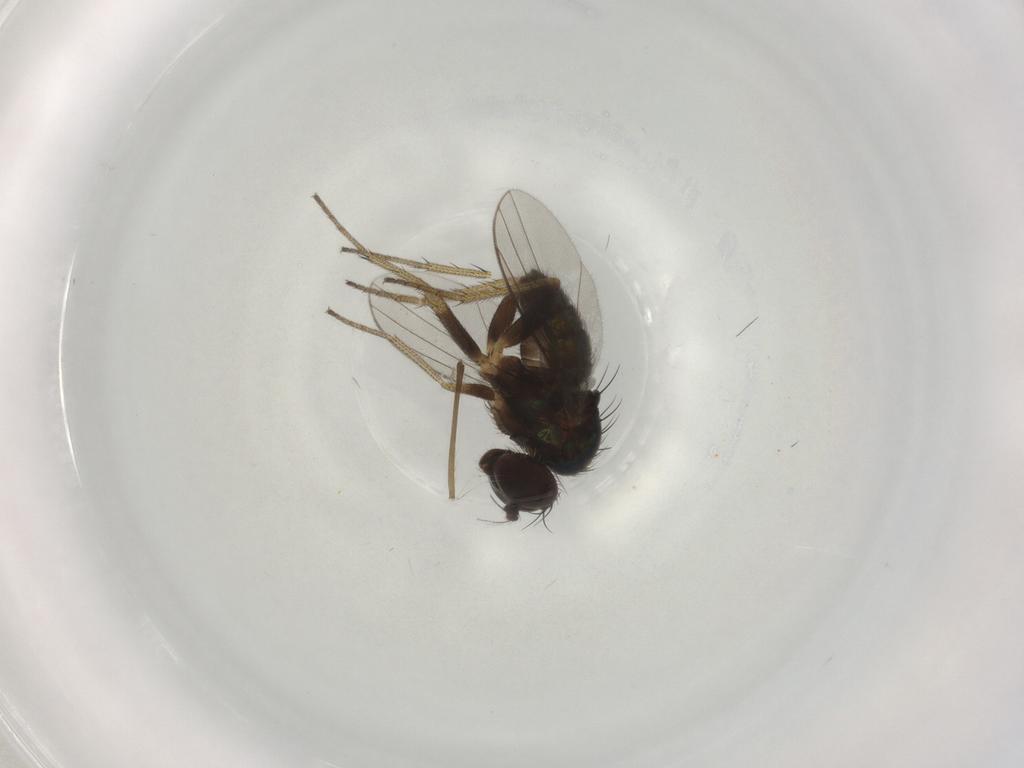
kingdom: Animalia
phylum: Arthropoda
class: Insecta
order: Diptera
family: Dolichopodidae
